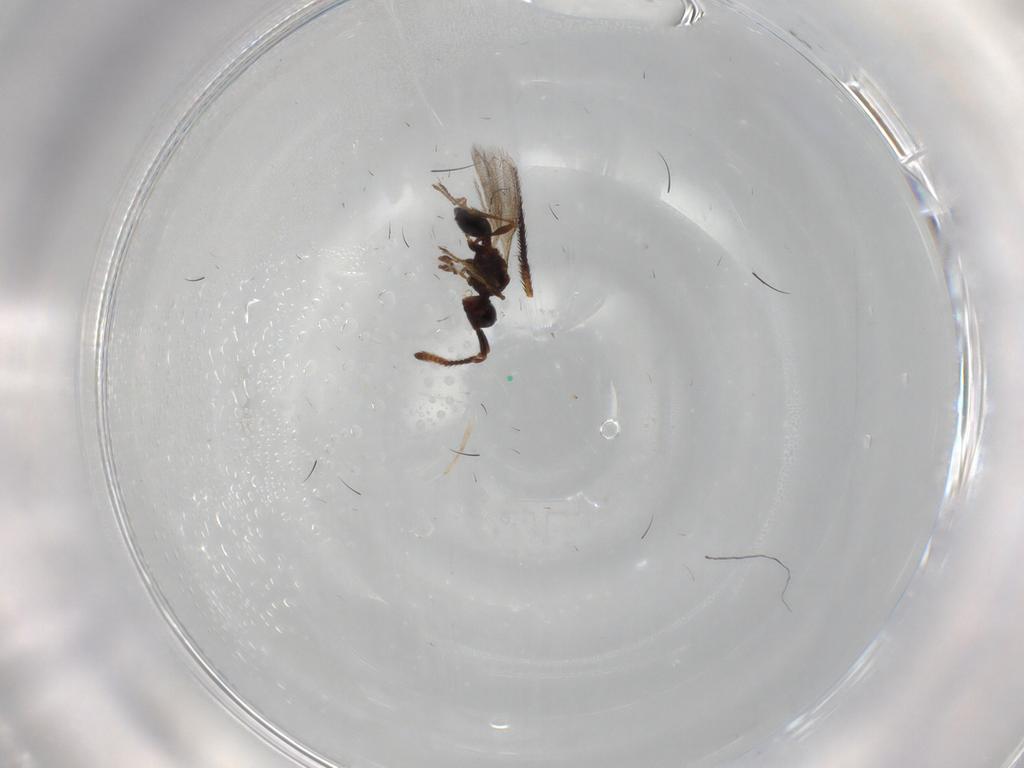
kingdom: Animalia
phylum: Arthropoda
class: Insecta
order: Hymenoptera
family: Diapriidae
